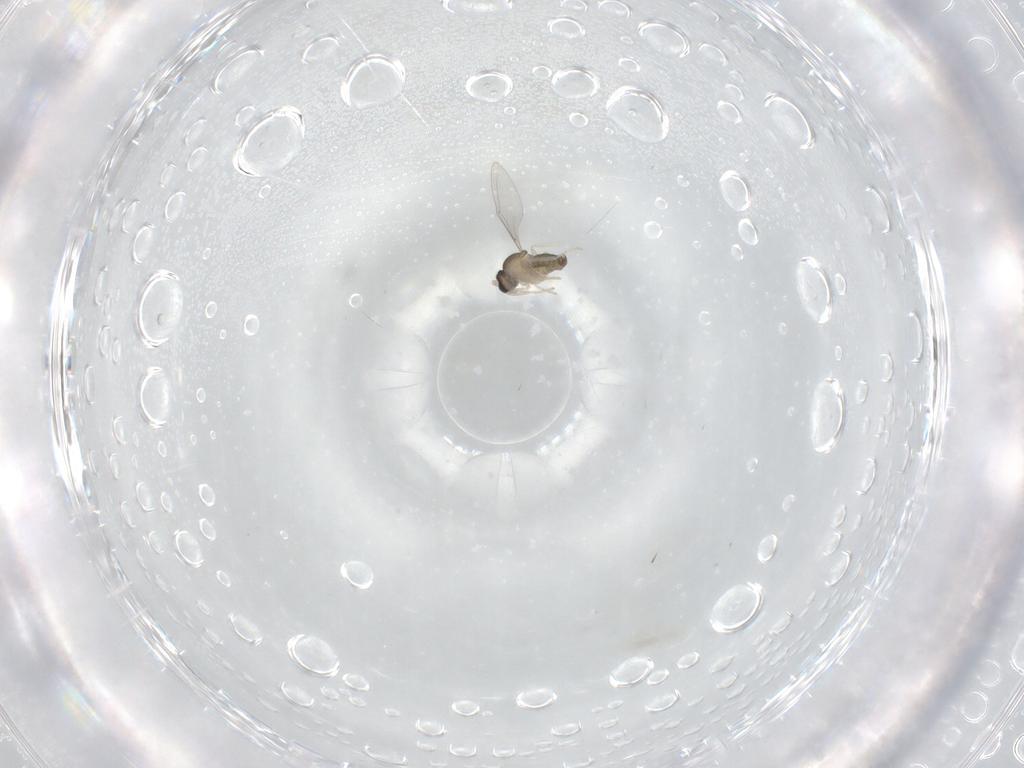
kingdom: Animalia
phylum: Arthropoda
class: Insecta
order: Diptera
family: Cecidomyiidae
